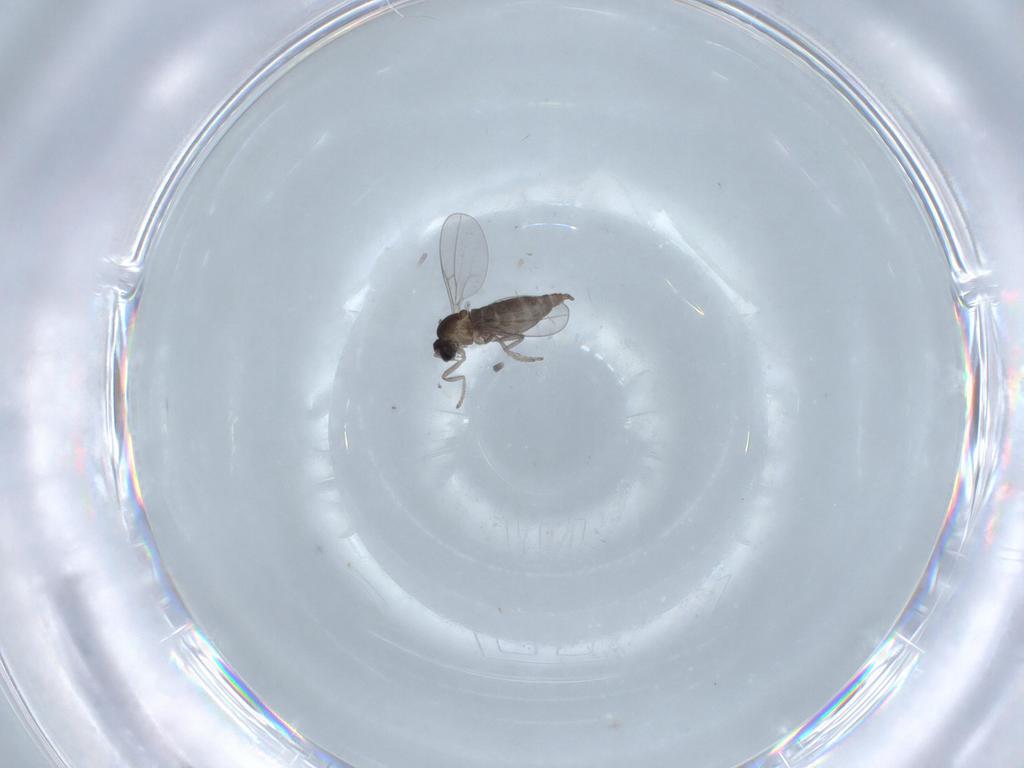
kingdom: Animalia
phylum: Arthropoda
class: Insecta
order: Diptera
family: Cecidomyiidae
